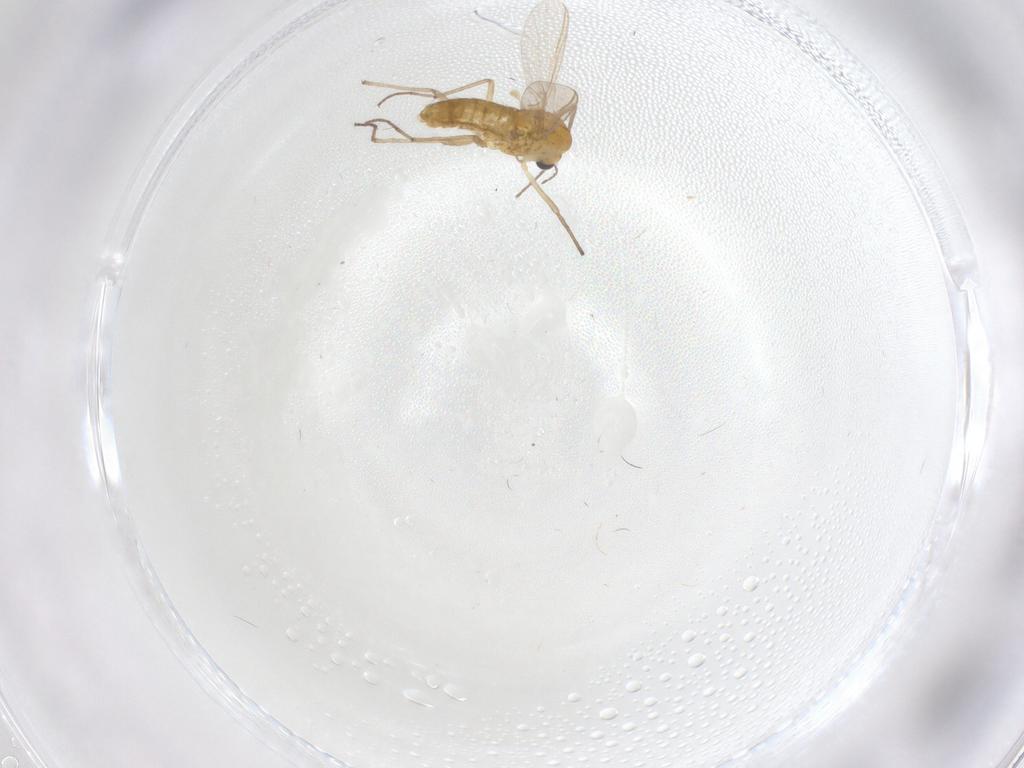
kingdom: Animalia
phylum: Arthropoda
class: Insecta
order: Diptera
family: Chironomidae
